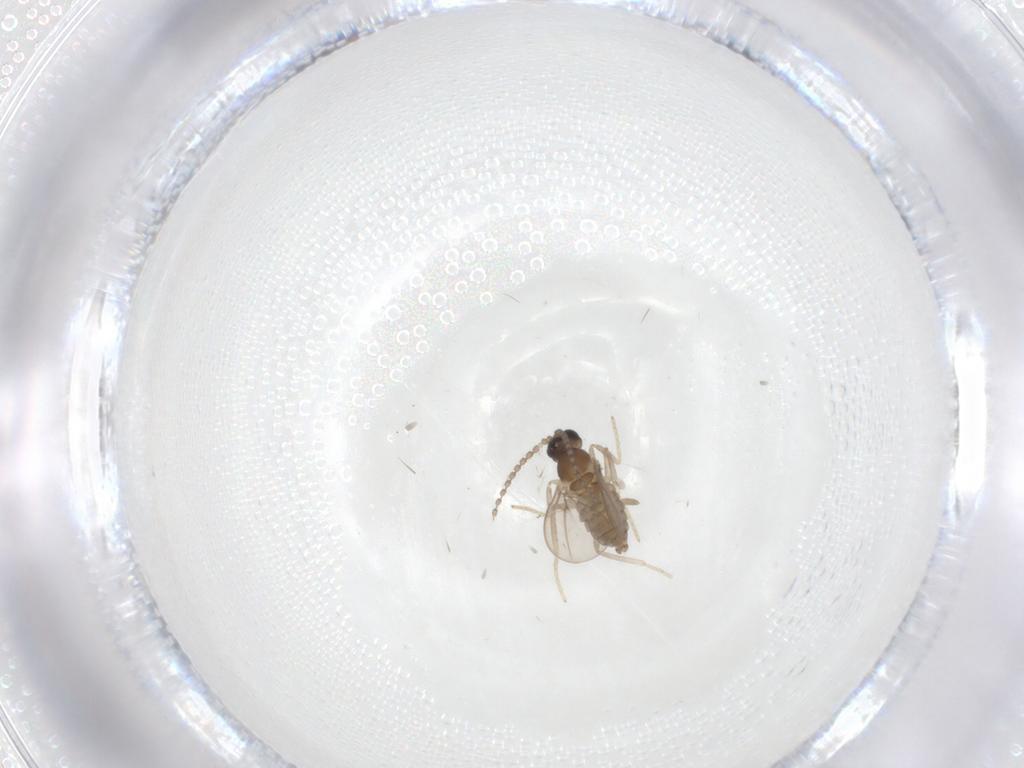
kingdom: Animalia
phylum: Arthropoda
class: Insecta
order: Diptera
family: Cecidomyiidae
